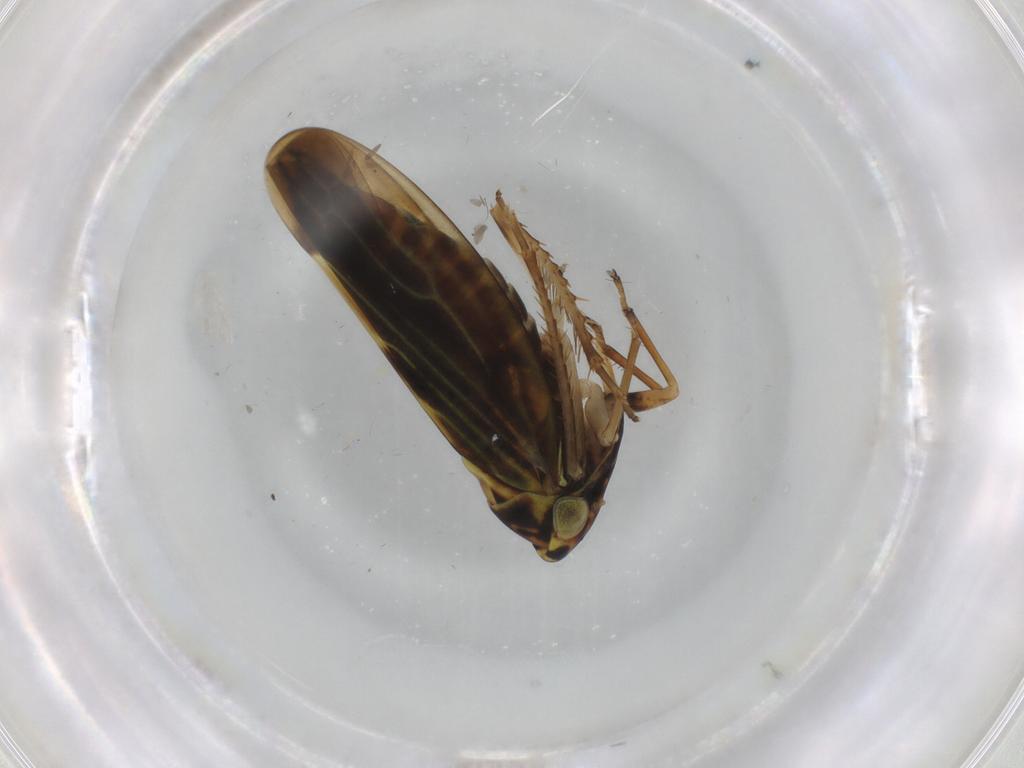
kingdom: Animalia
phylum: Arthropoda
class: Insecta
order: Hemiptera
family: Cicadellidae
